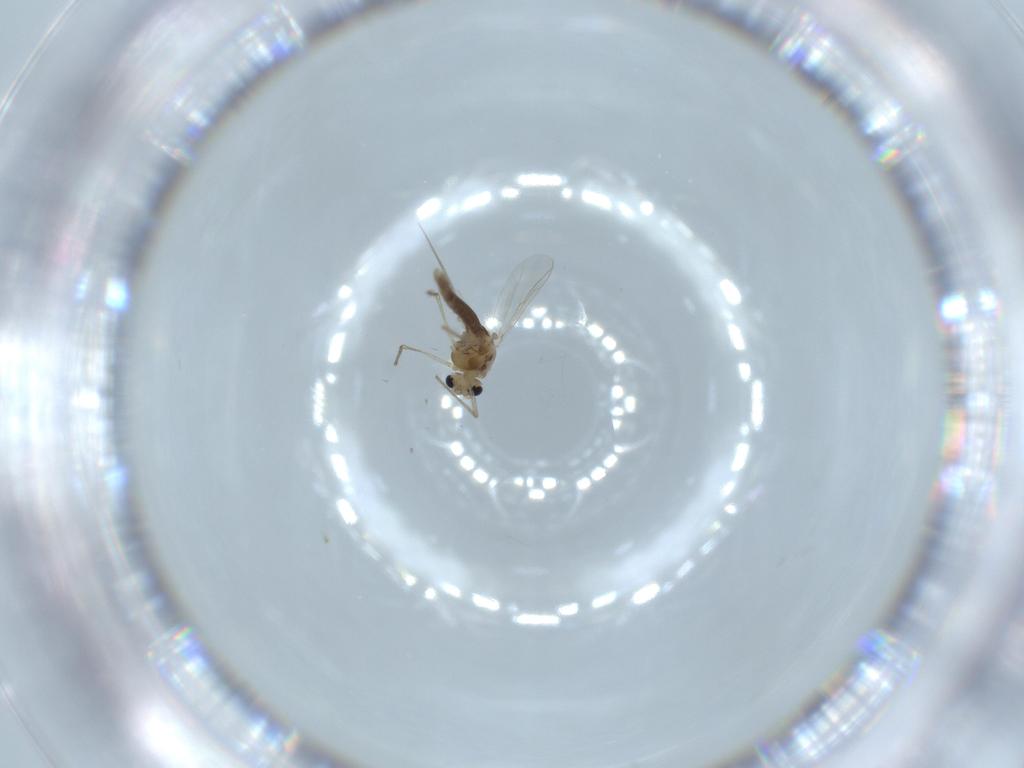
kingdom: Animalia
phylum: Arthropoda
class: Insecta
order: Diptera
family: Chironomidae
